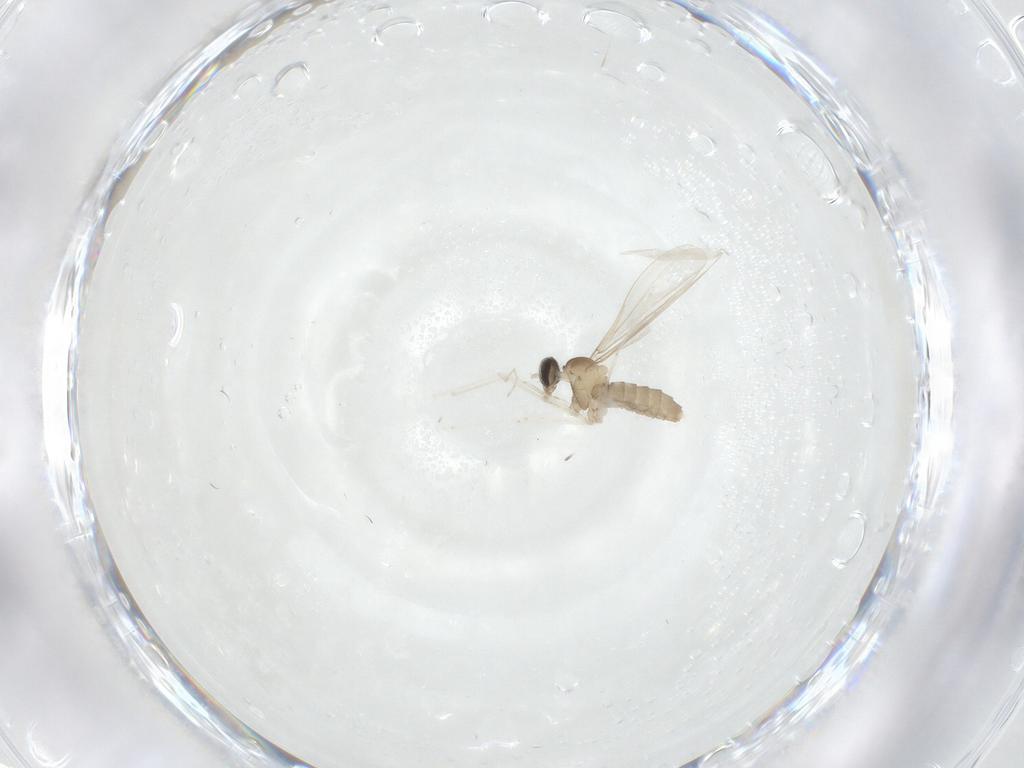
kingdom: Animalia
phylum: Arthropoda
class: Insecta
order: Diptera
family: Cecidomyiidae
